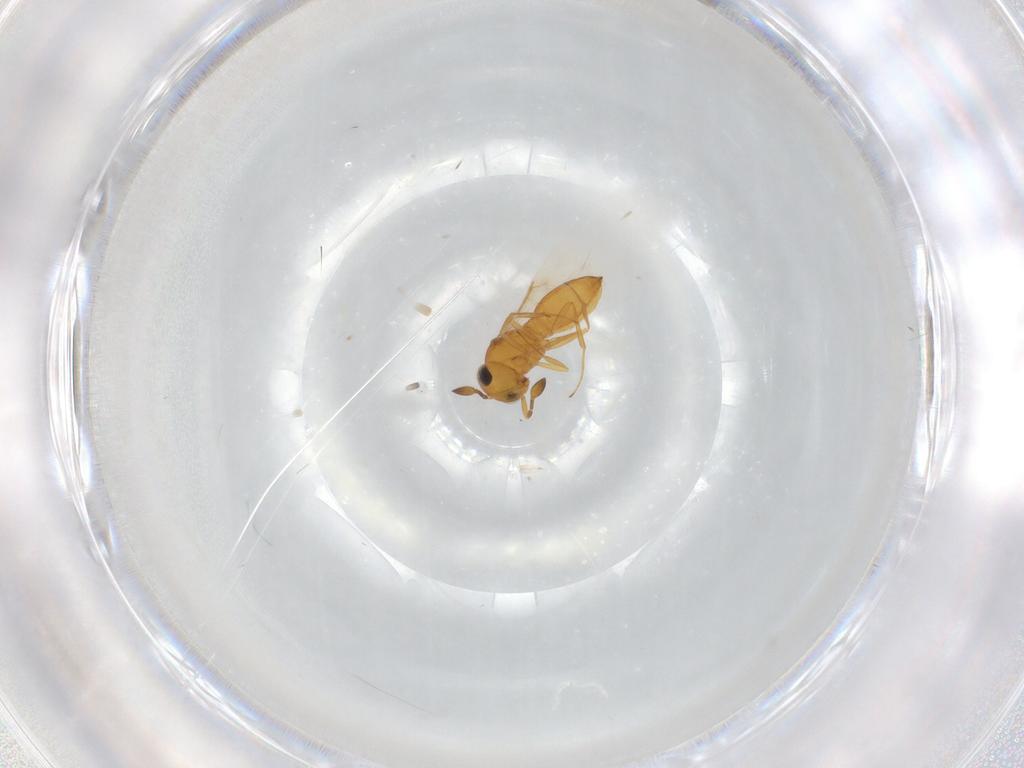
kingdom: Animalia
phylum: Arthropoda
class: Insecta
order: Hymenoptera
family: Scelionidae
